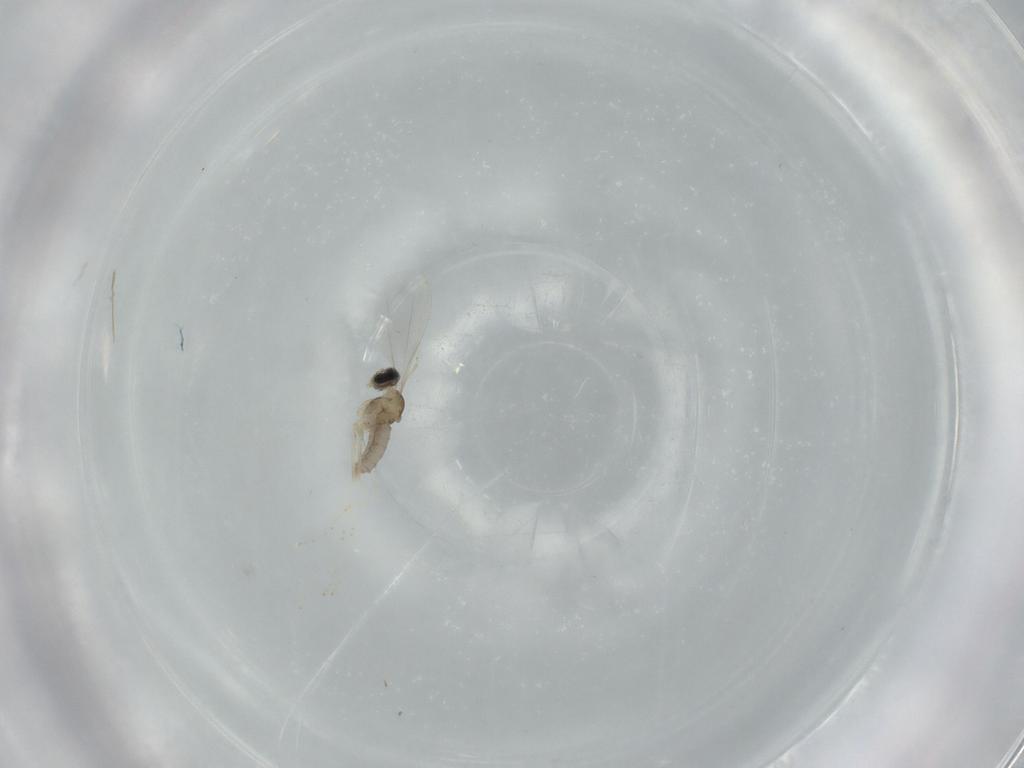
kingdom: Animalia
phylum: Arthropoda
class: Insecta
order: Diptera
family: Cecidomyiidae
